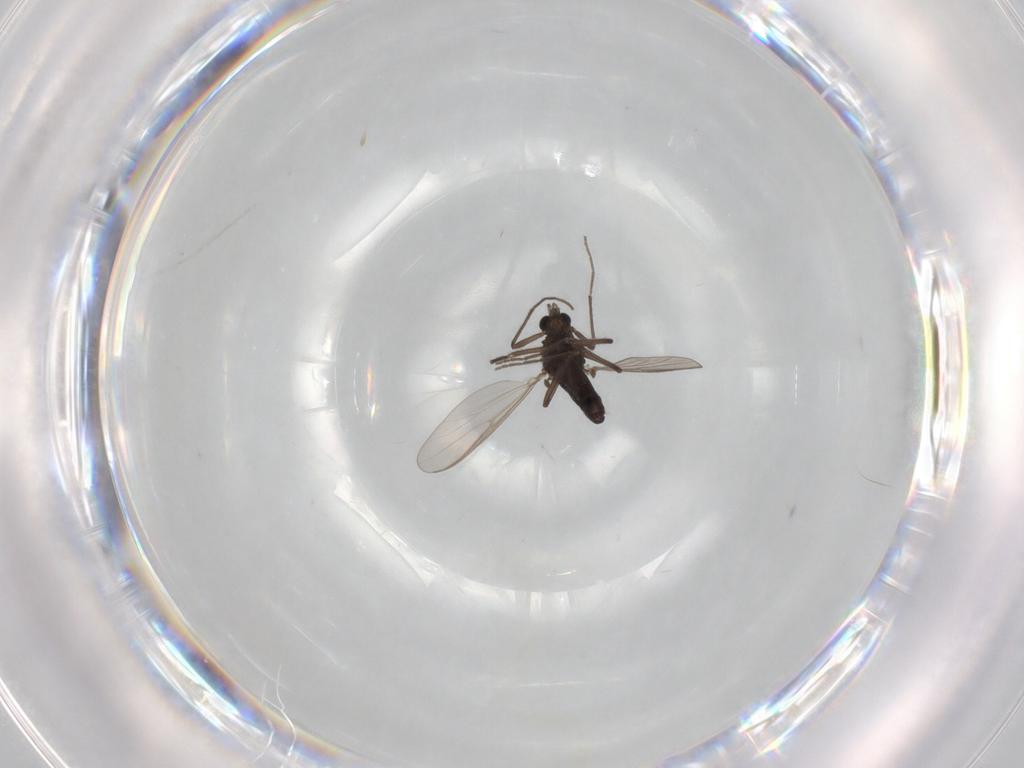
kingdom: Animalia
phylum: Arthropoda
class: Insecta
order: Diptera
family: Chironomidae
